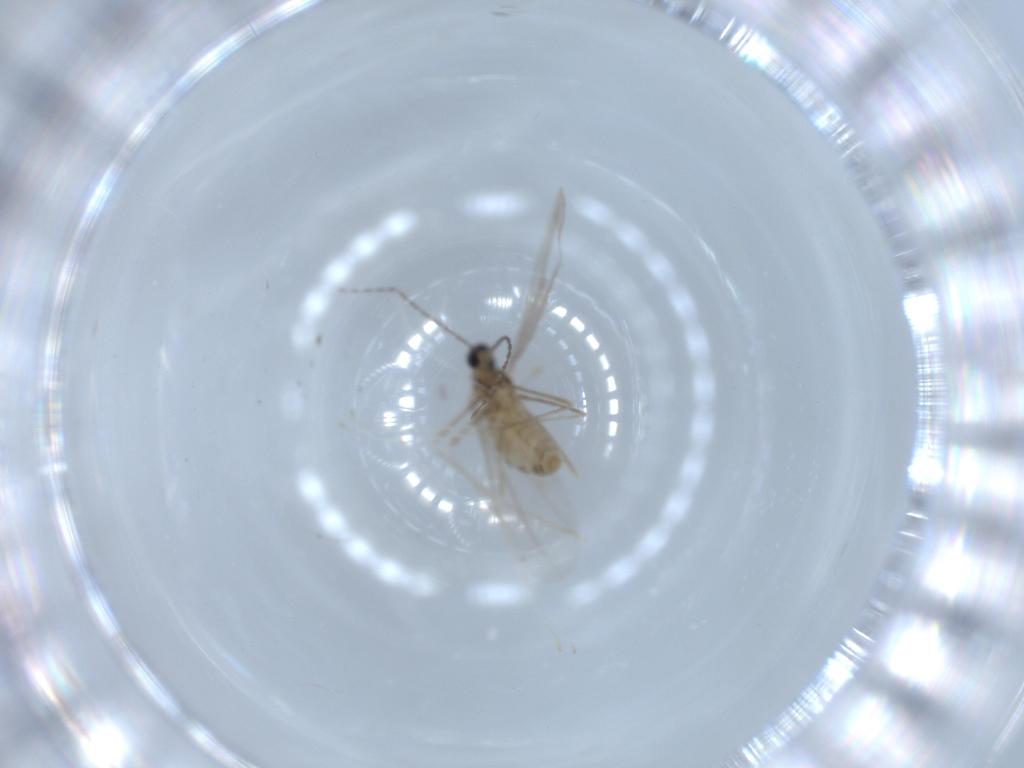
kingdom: Animalia
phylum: Arthropoda
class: Insecta
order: Diptera
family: Cecidomyiidae
